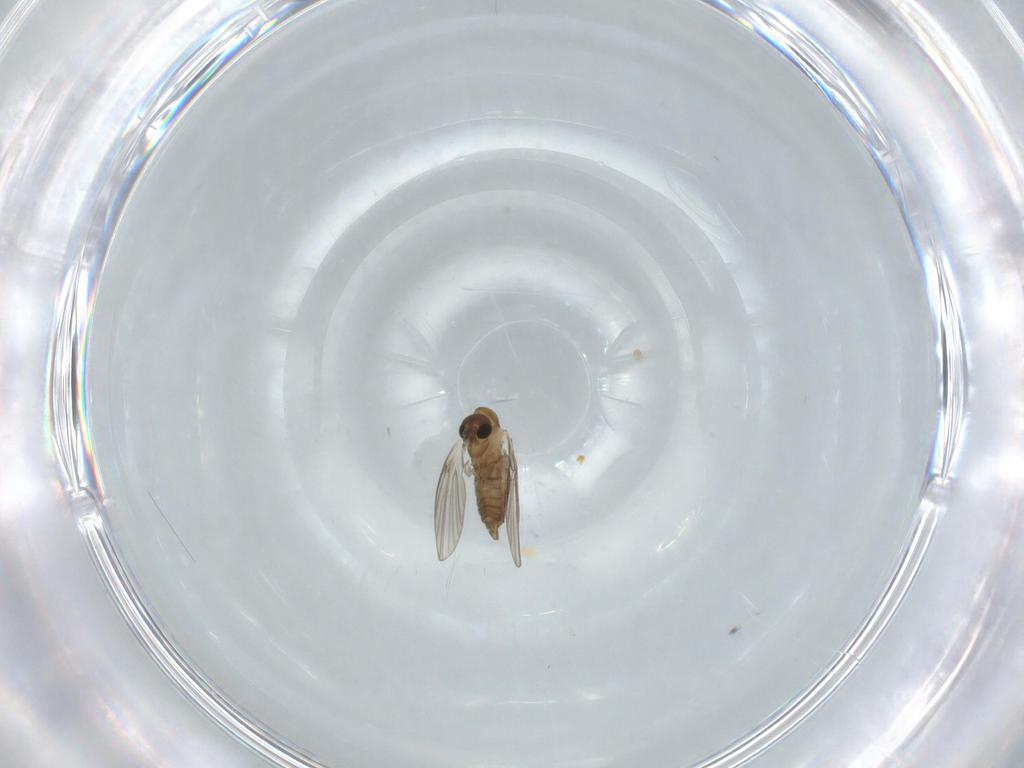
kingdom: Animalia
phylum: Arthropoda
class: Insecta
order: Diptera
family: Psychodidae
